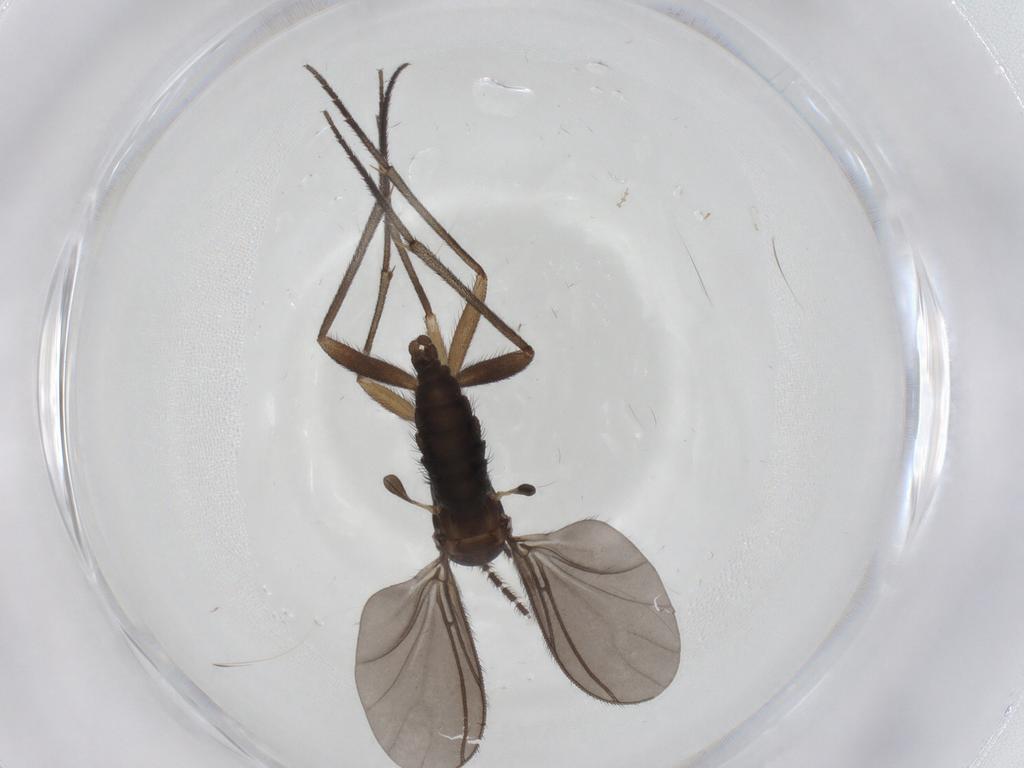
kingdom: Animalia
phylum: Arthropoda
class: Insecta
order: Diptera
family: Sciaridae
